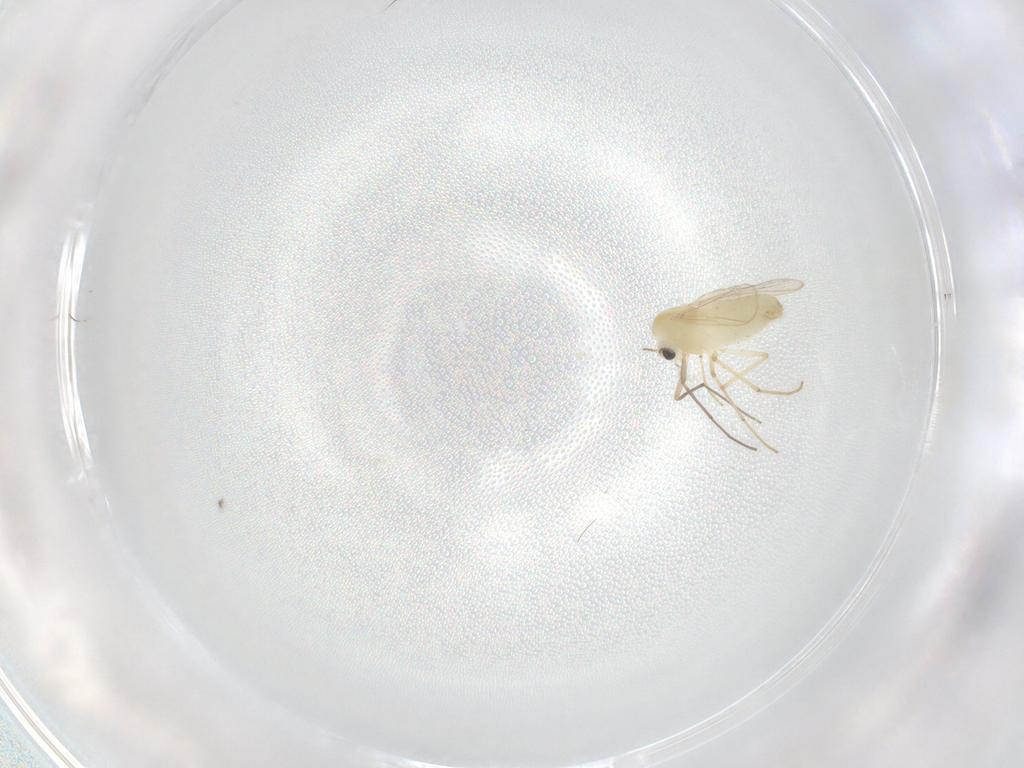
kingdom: Animalia
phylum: Arthropoda
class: Insecta
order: Diptera
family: Chironomidae
